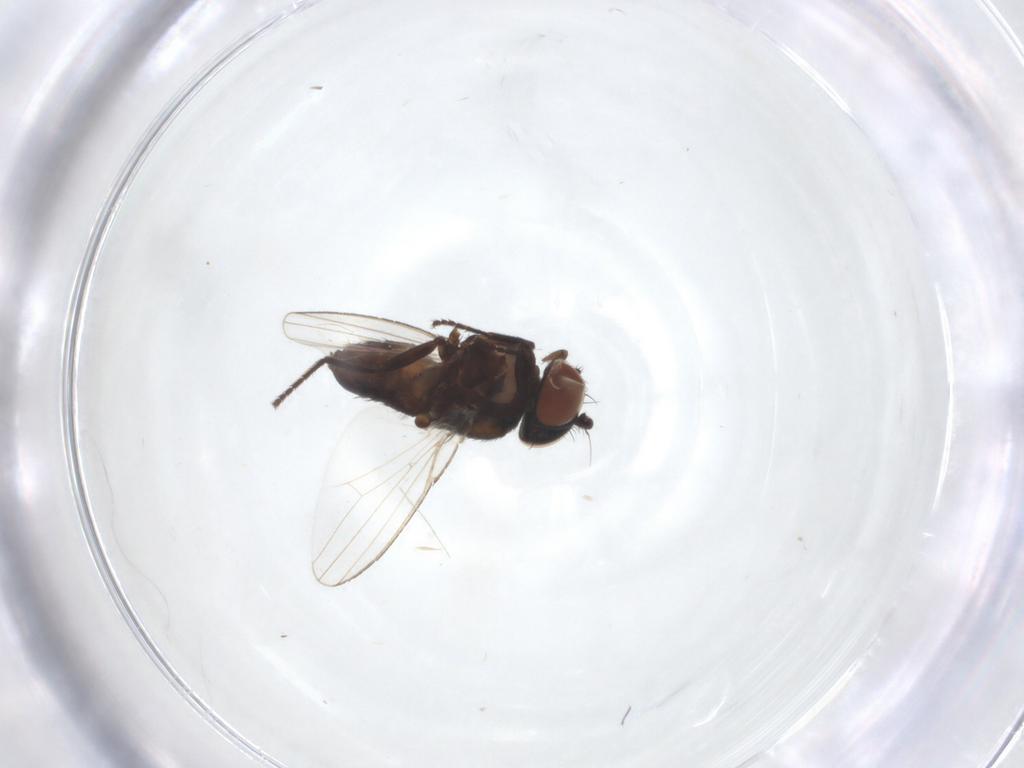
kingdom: Animalia
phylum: Arthropoda
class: Insecta
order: Diptera
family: Milichiidae
